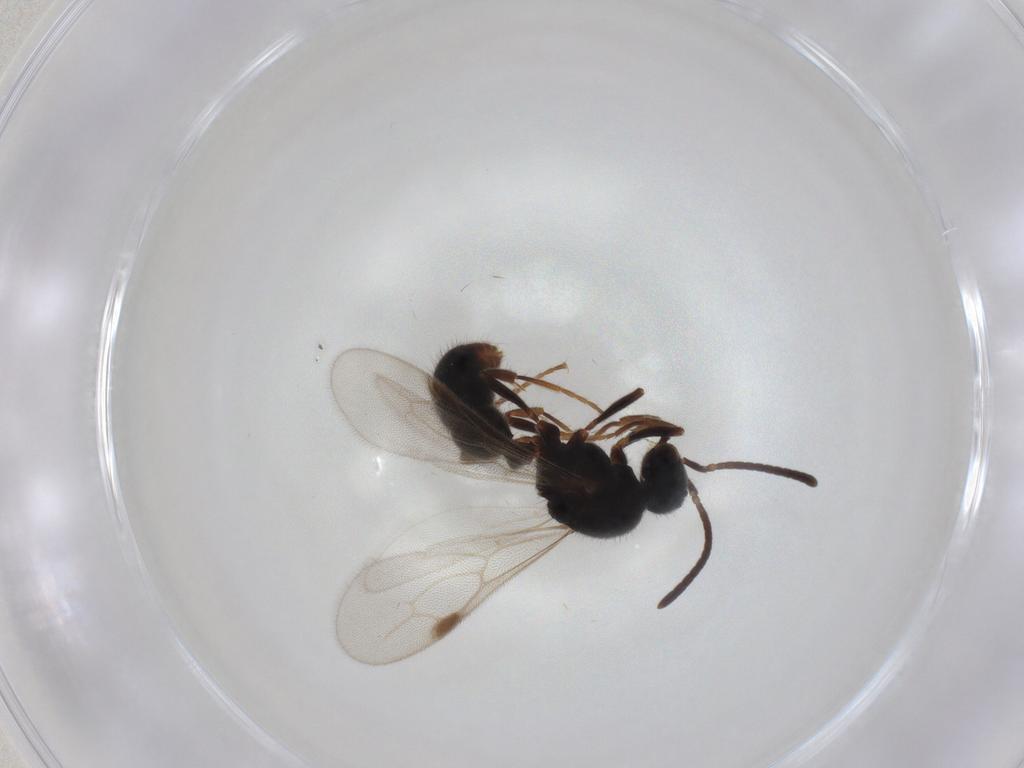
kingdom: Animalia
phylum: Arthropoda
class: Insecta
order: Hymenoptera
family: Formicidae
